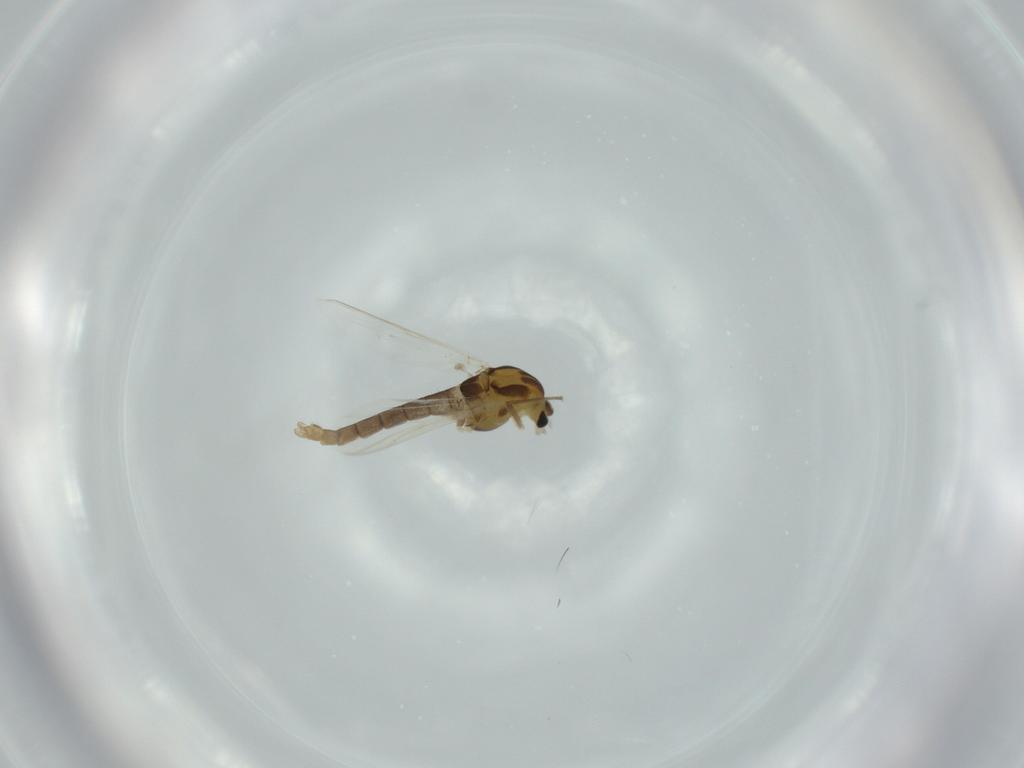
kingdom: Animalia
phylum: Arthropoda
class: Insecta
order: Diptera
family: Chironomidae
